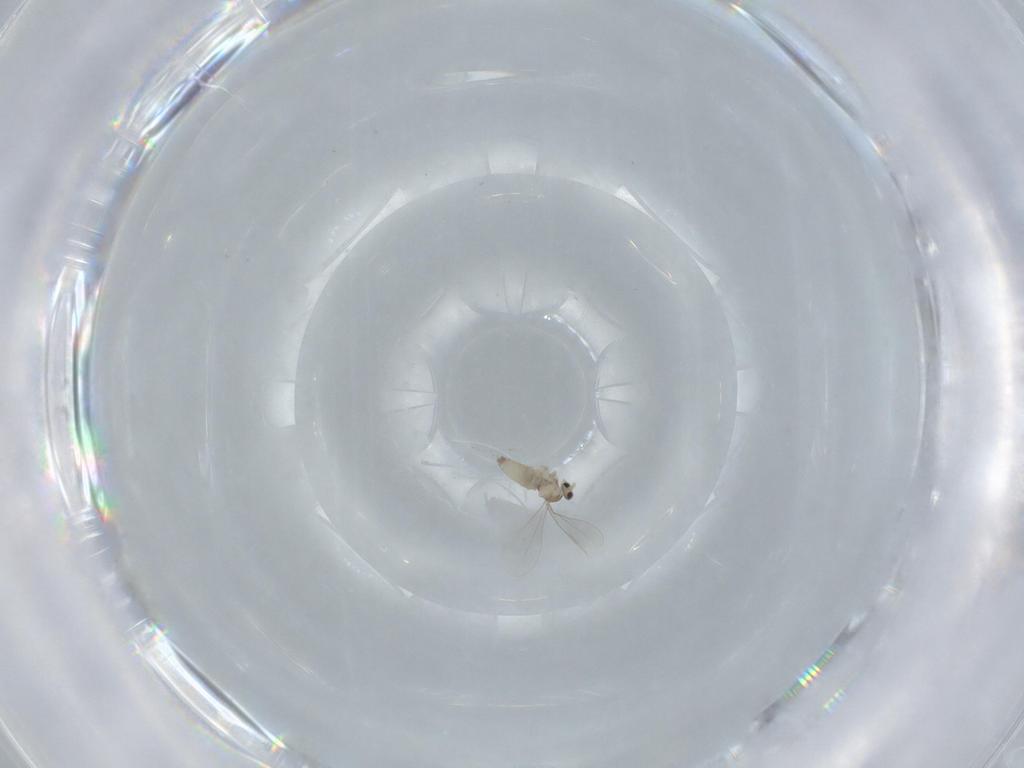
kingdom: Animalia
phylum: Arthropoda
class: Insecta
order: Diptera
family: Cecidomyiidae
